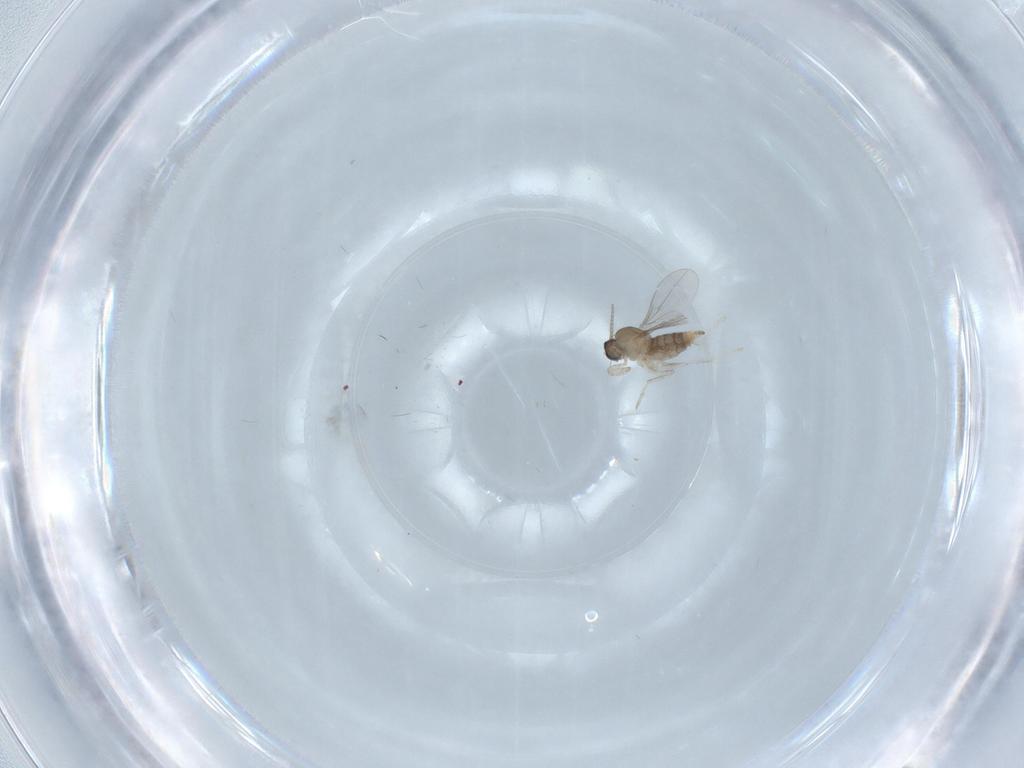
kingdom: Animalia
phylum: Arthropoda
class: Insecta
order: Diptera
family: Cecidomyiidae
